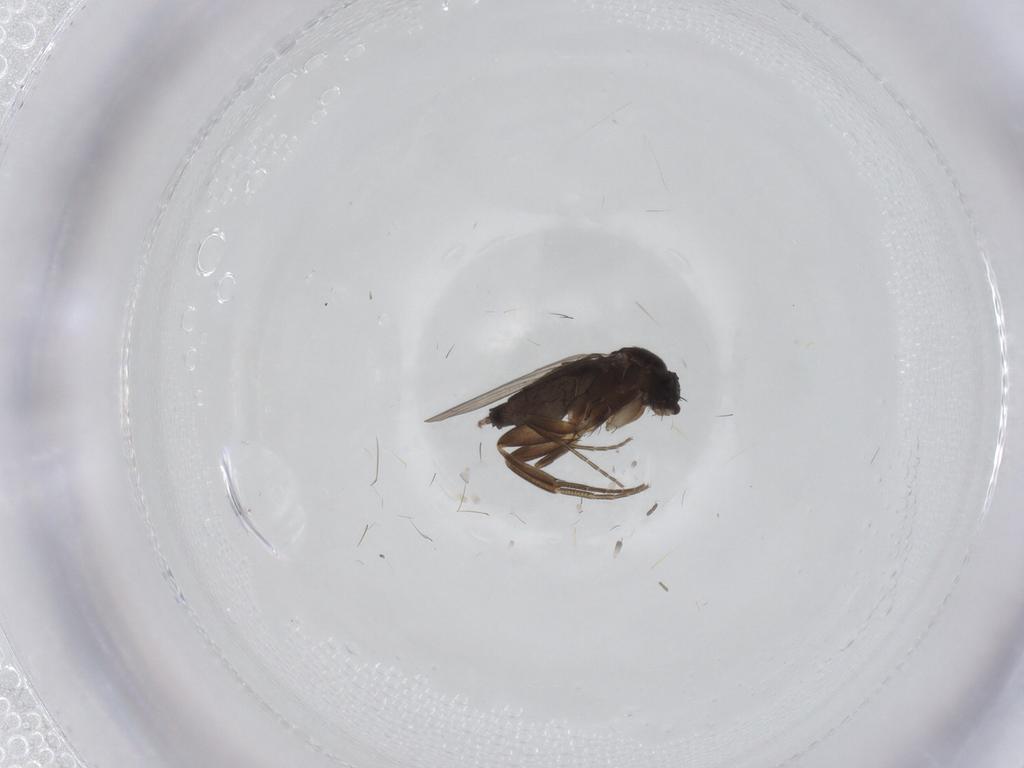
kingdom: Animalia
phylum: Arthropoda
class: Insecta
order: Diptera
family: Phoridae
